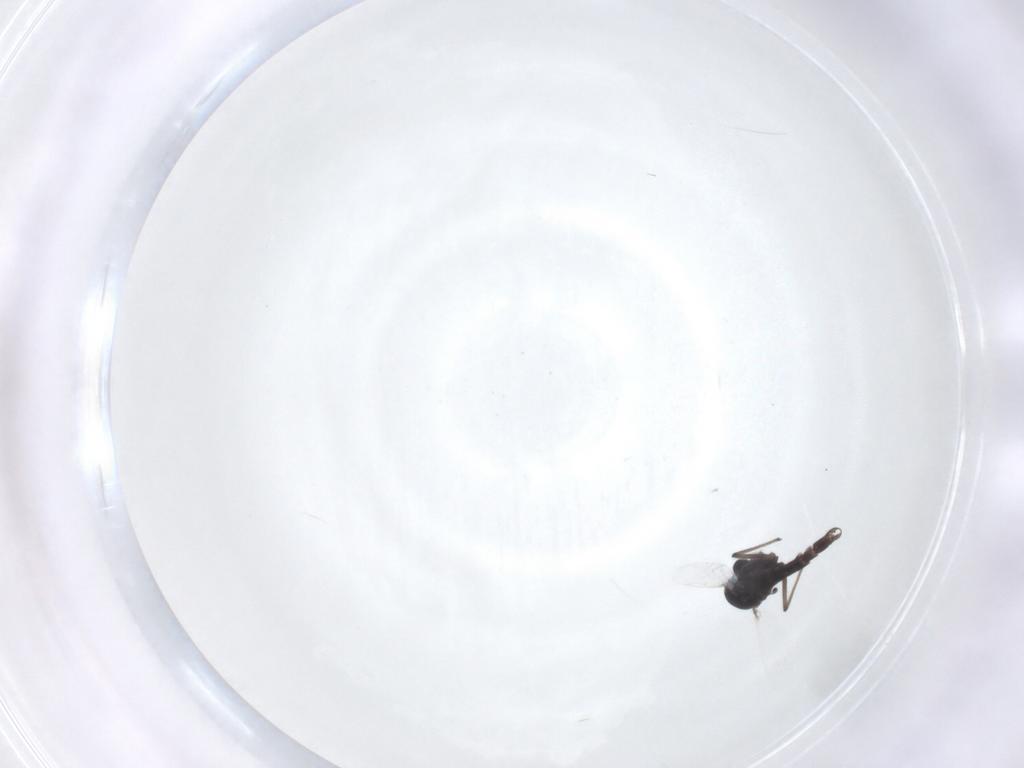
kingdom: Animalia
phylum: Arthropoda
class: Insecta
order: Diptera
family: Chironomidae
